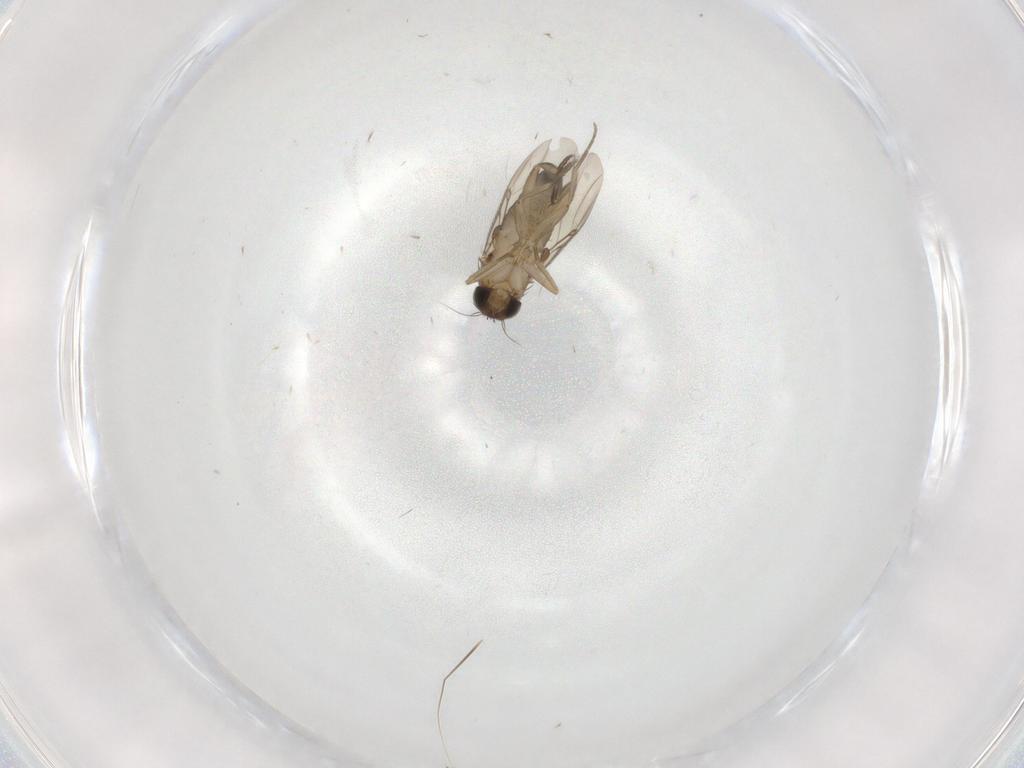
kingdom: Animalia
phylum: Arthropoda
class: Insecta
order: Diptera
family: Phoridae
